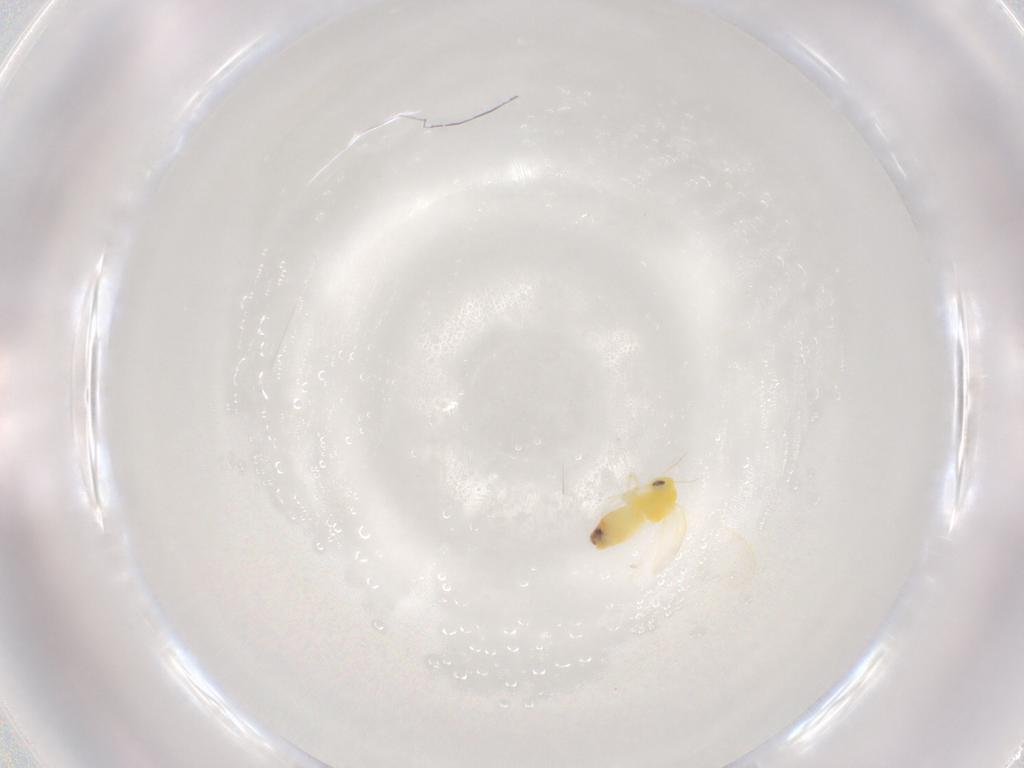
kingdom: Animalia
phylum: Arthropoda
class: Insecta
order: Hemiptera
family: Aleyrodidae
